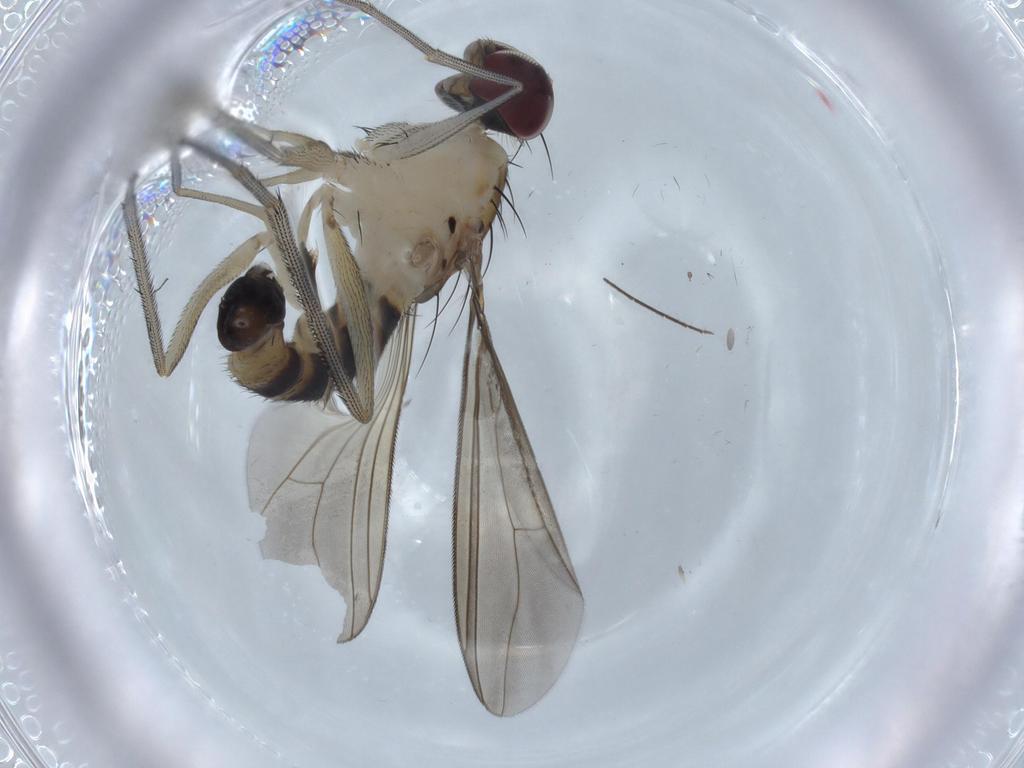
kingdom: Animalia
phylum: Arthropoda
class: Insecta
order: Diptera
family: Dolichopodidae
